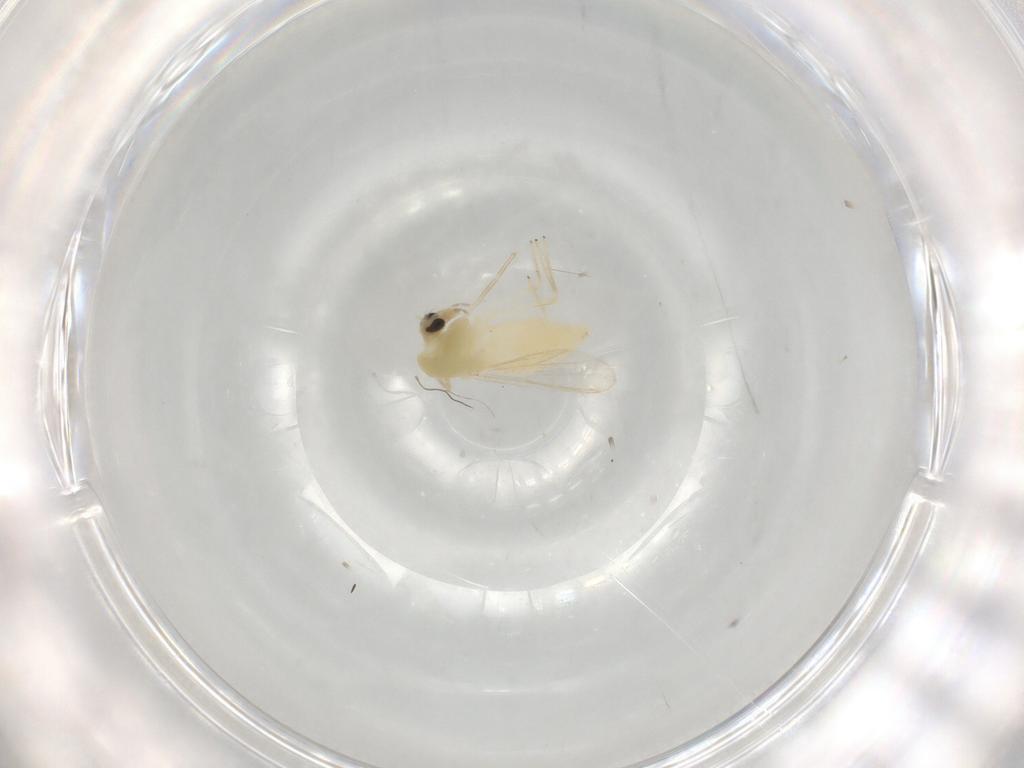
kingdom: Animalia
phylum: Arthropoda
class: Insecta
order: Diptera
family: Chironomidae
